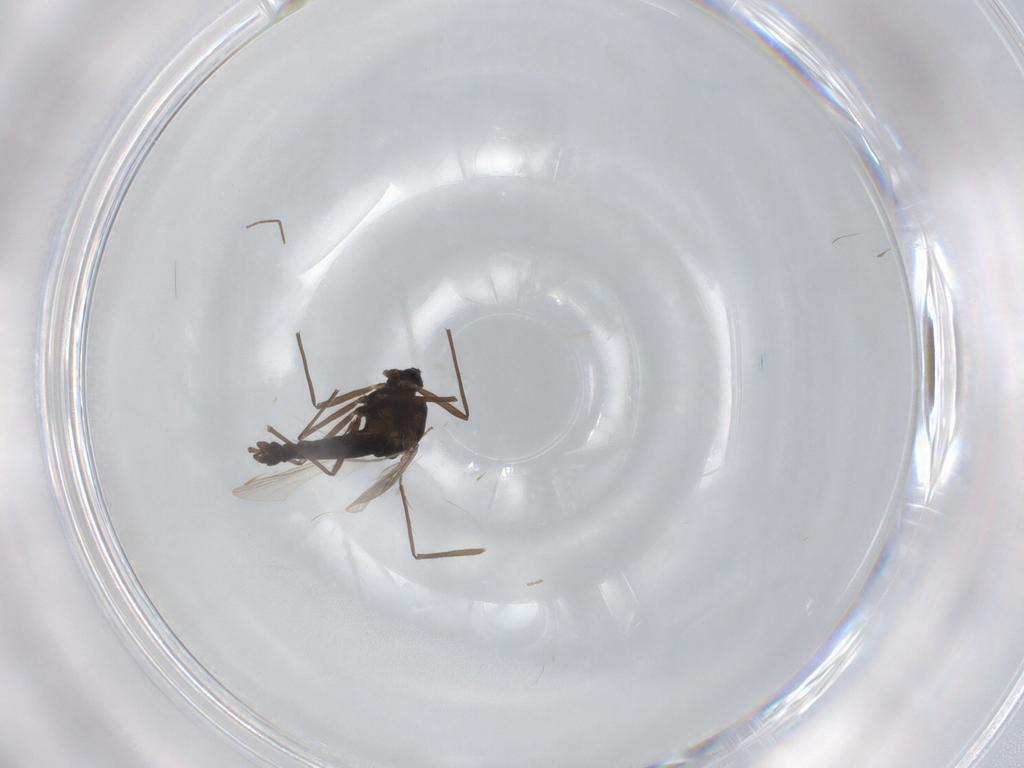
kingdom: Animalia
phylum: Arthropoda
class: Insecta
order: Diptera
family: Chironomidae
